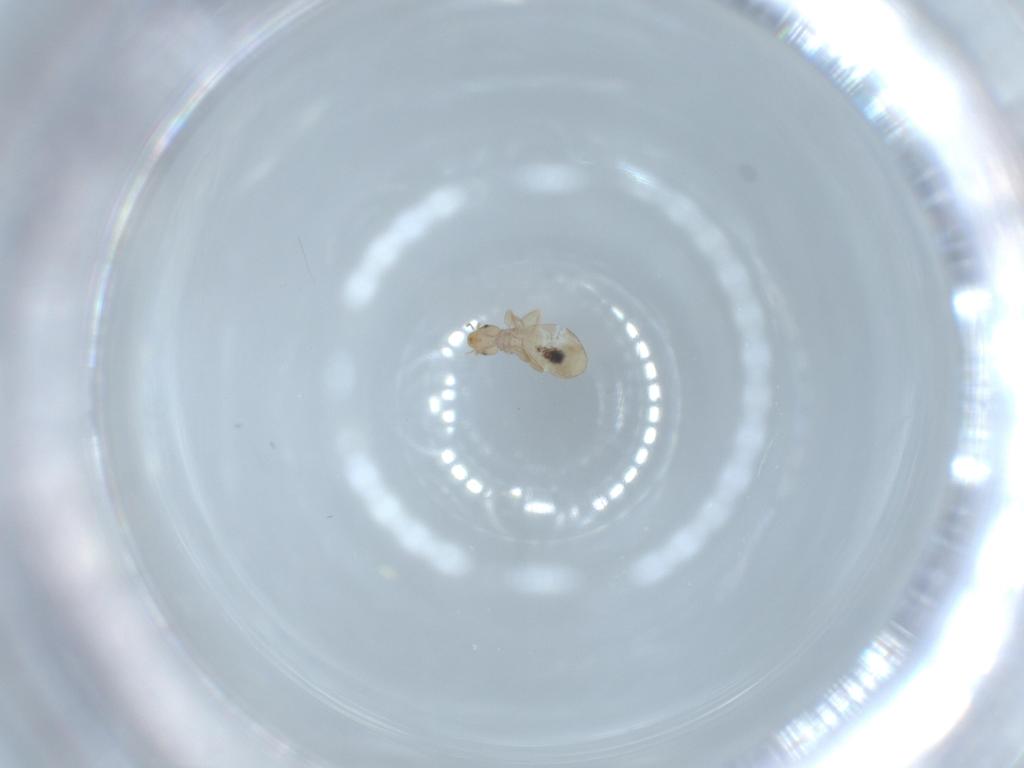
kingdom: Animalia
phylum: Arthropoda
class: Insecta
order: Psocodea
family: Liposcelididae
